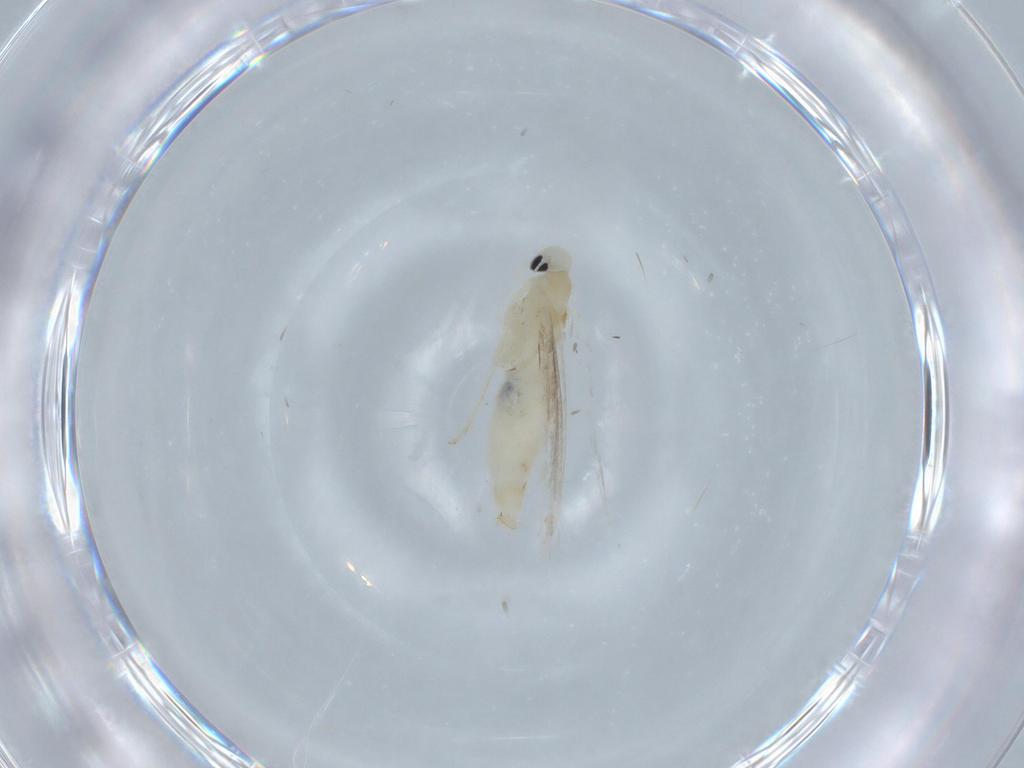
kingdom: Animalia
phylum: Arthropoda
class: Insecta
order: Lepidoptera
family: Gracillariidae
